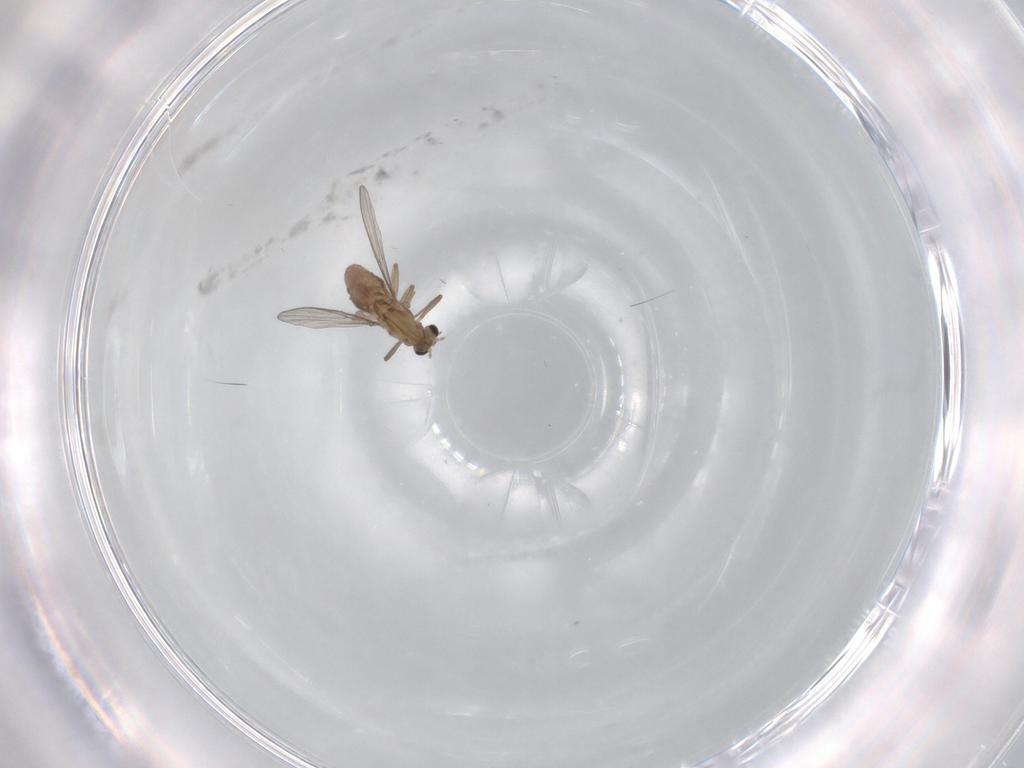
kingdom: Animalia
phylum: Arthropoda
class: Insecta
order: Diptera
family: Chironomidae
